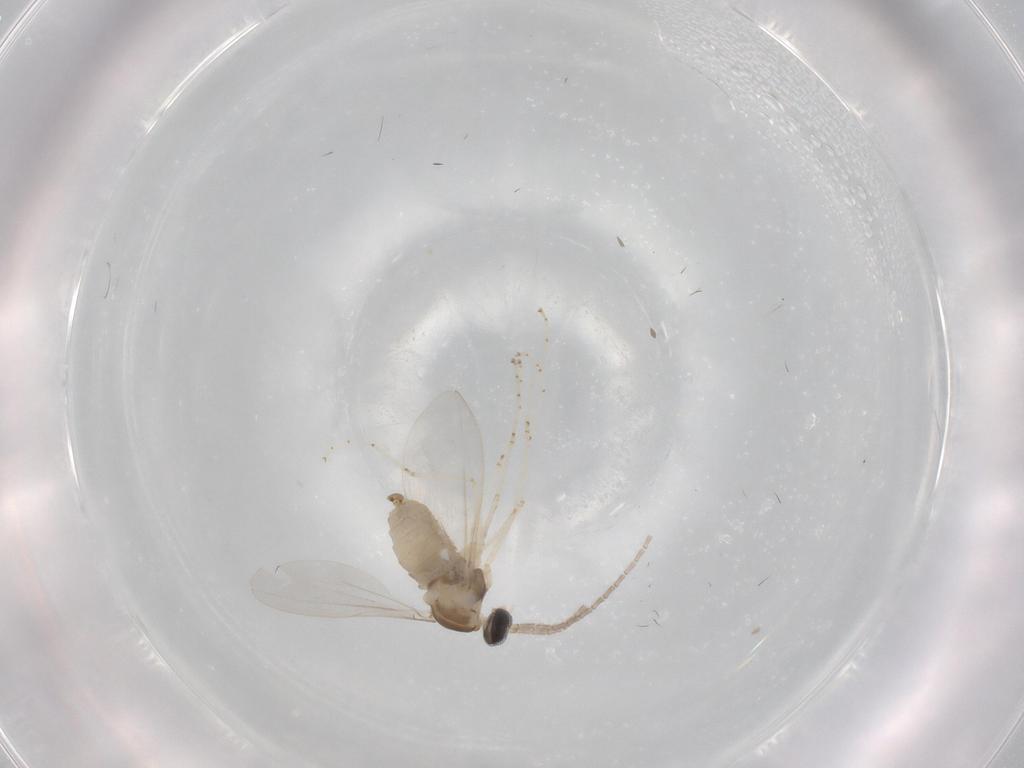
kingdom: Animalia
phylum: Arthropoda
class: Insecta
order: Diptera
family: Cecidomyiidae
